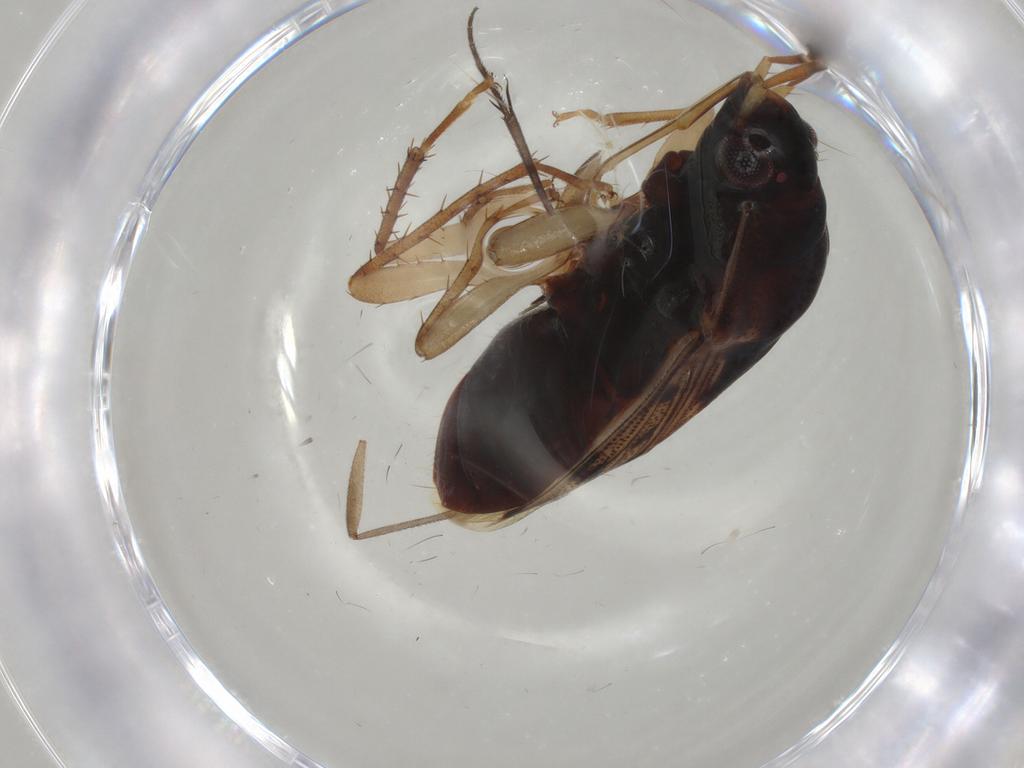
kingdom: Animalia
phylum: Arthropoda
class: Insecta
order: Hemiptera
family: Rhyparochromidae
